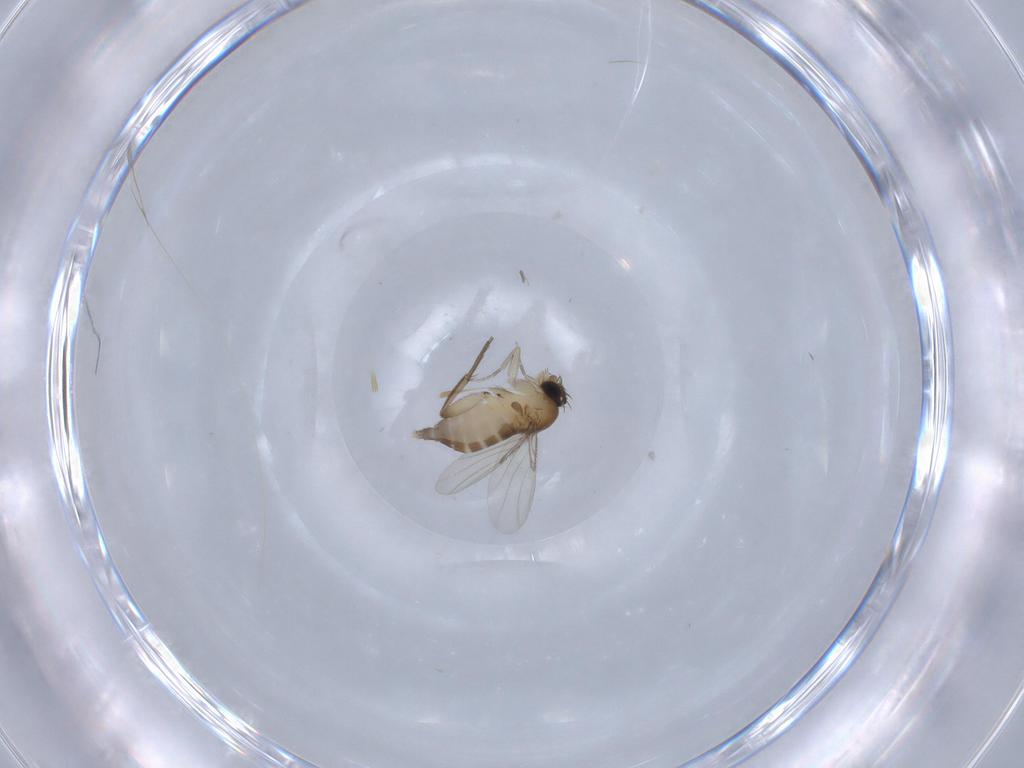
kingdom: Animalia
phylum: Arthropoda
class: Insecta
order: Diptera
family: Phoridae
